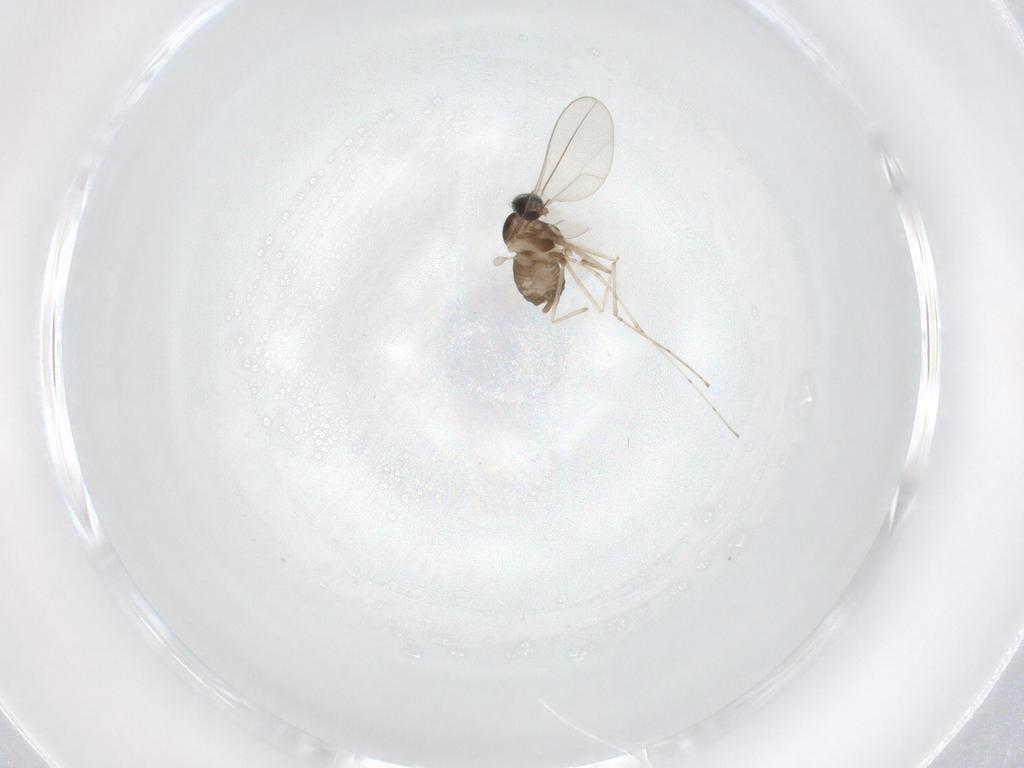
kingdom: Animalia
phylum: Arthropoda
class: Insecta
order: Diptera
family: Cecidomyiidae
